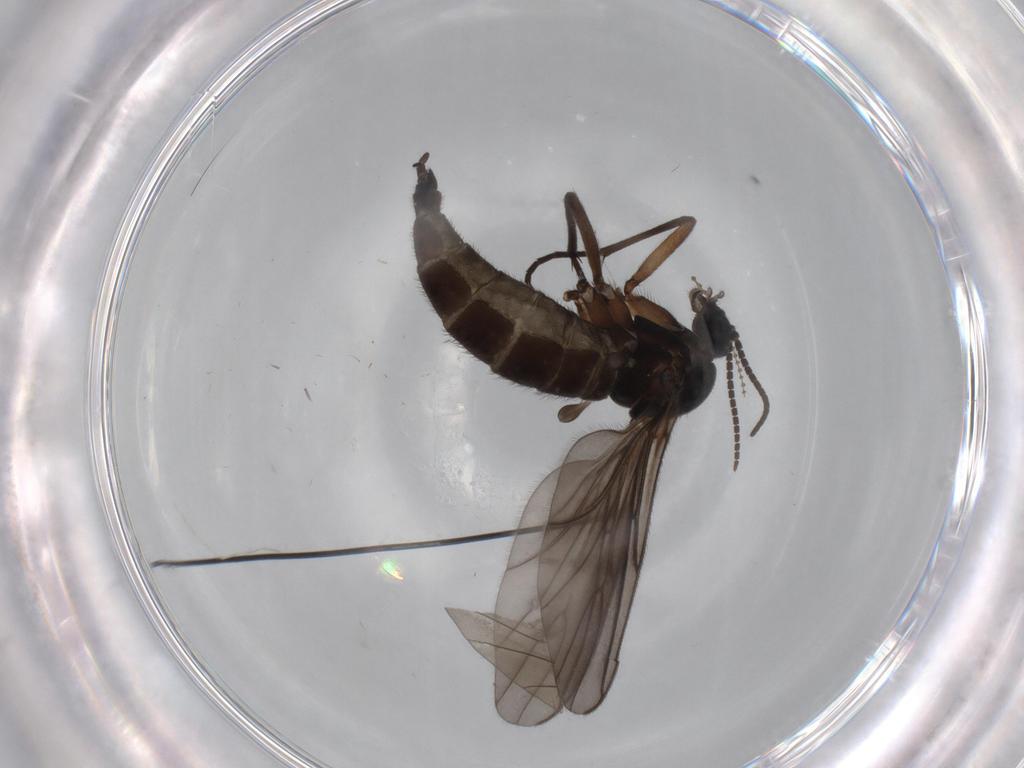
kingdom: Animalia
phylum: Arthropoda
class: Insecta
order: Diptera
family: Sciaridae
